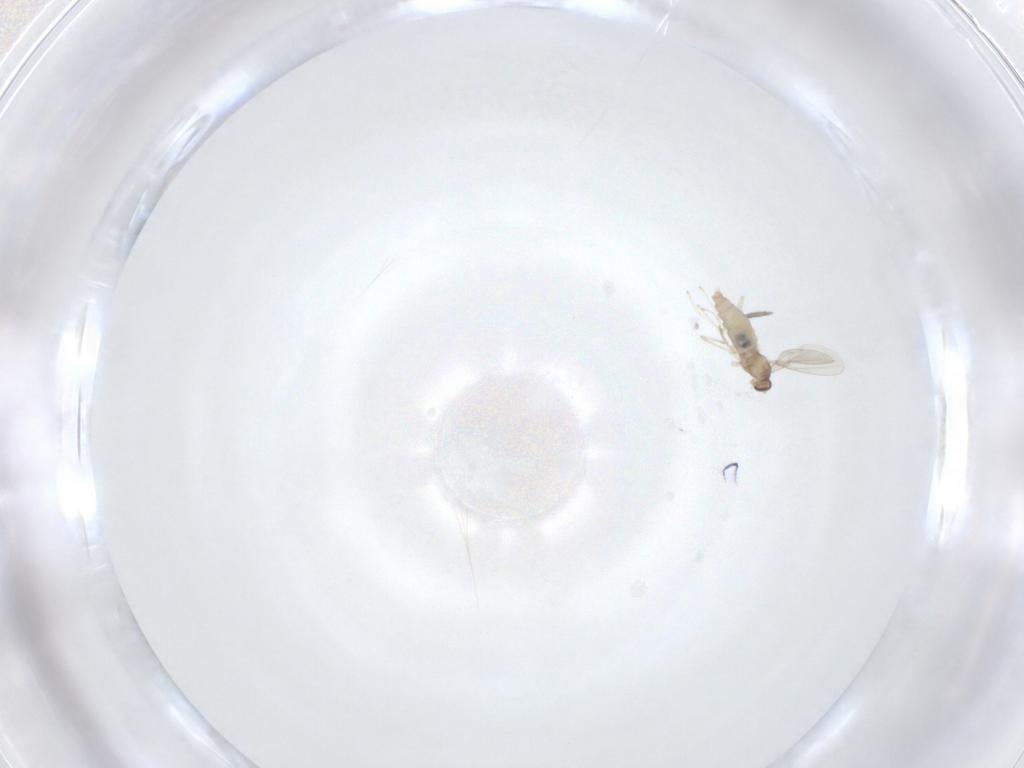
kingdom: Animalia
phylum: Arthropoda
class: Insecta
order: Diptera
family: Cecidomyiidae
